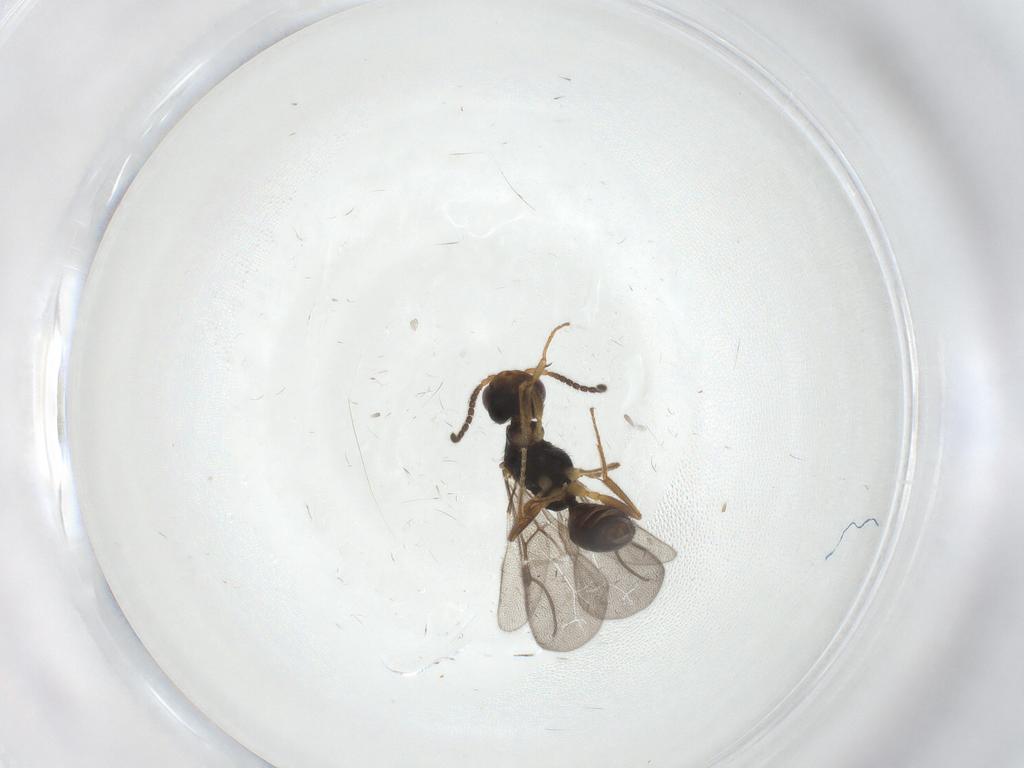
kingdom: Animalia
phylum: Arthropoda
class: Insecta
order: Hymenoptera
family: Bethylidae
